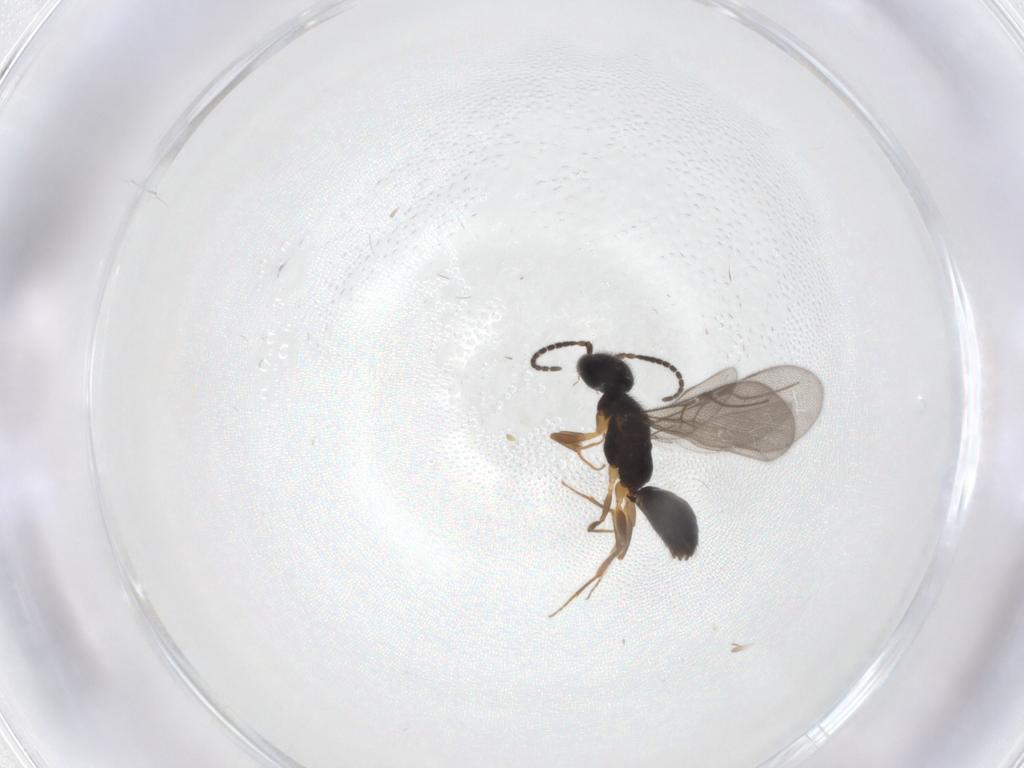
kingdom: Animalia
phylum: Arthropoda
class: Insecta
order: Hymenoptera
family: Bethylidae
